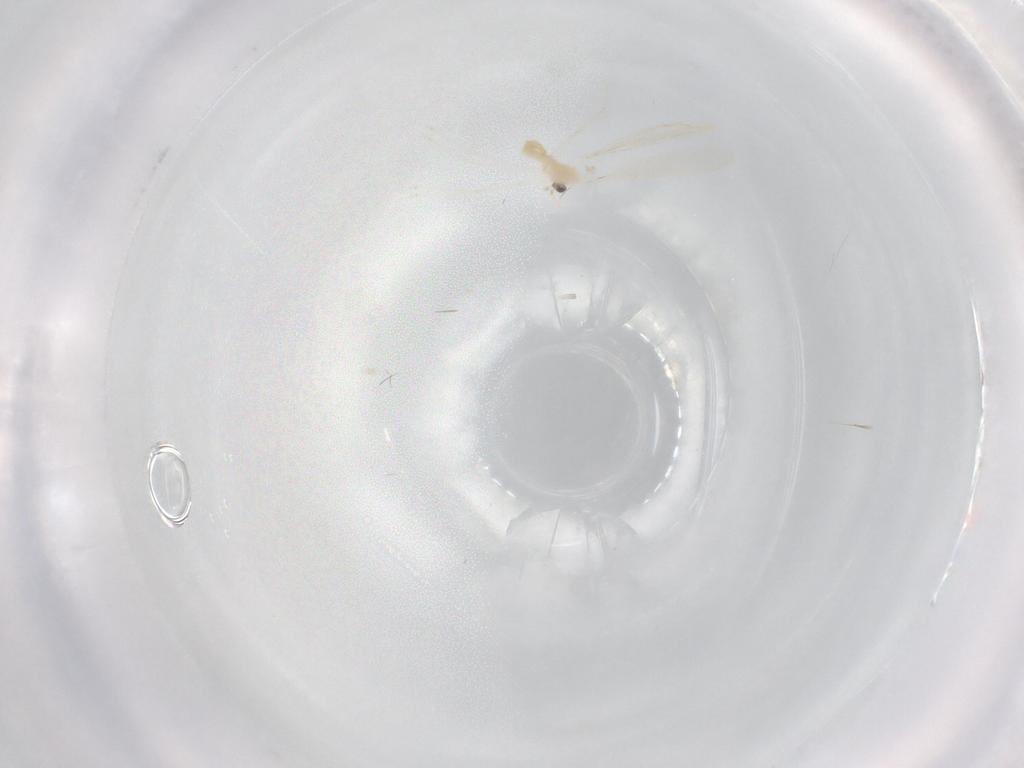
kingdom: Animalia
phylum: Arthropoda
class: Insecta
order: Diptera
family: Cecidomyiidae
